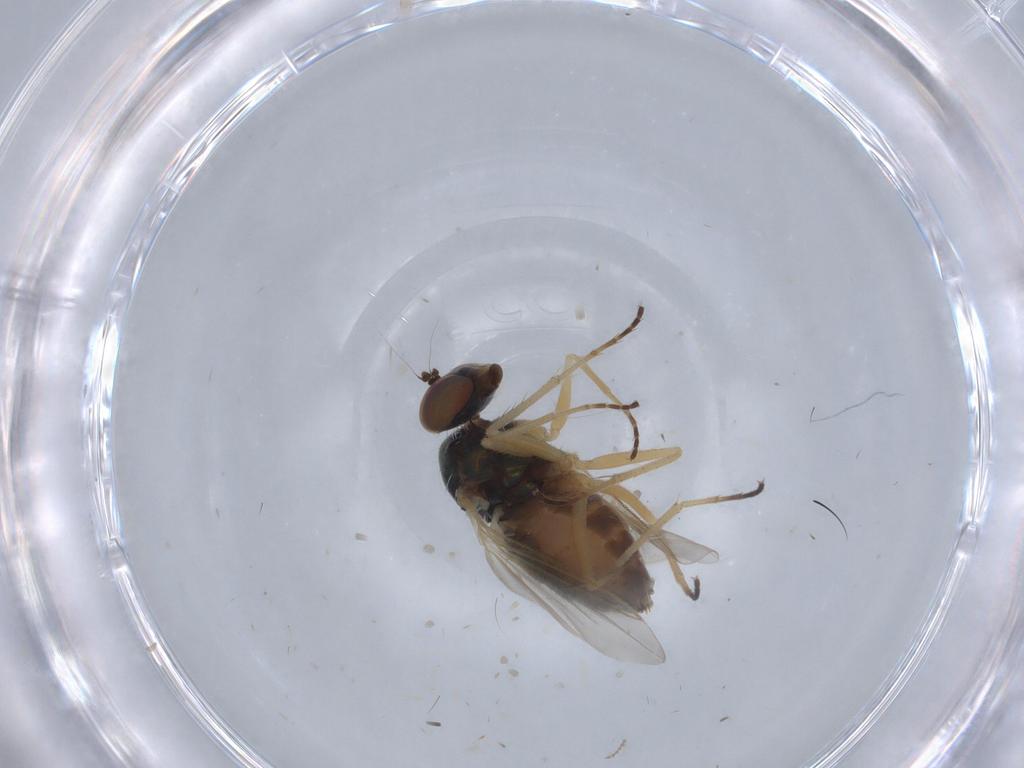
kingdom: Animalia
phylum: Arthropoda
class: Insecta
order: Diptera
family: Dolichopodidae
